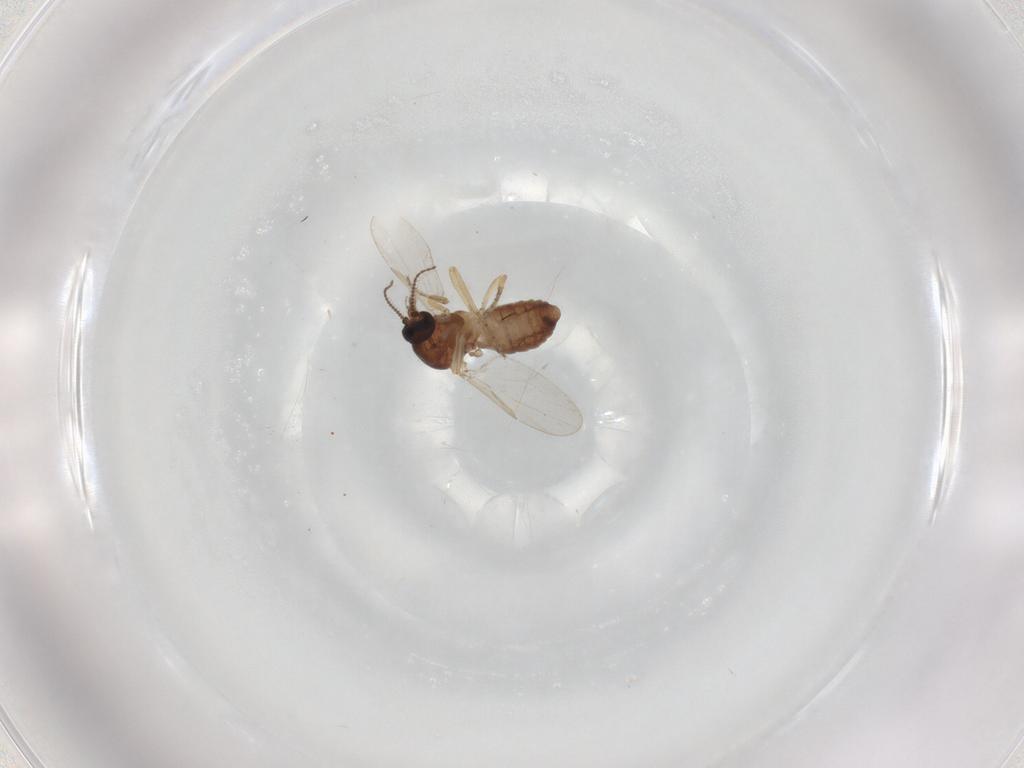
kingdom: Animalia
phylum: Arthropoda
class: Insecta
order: Diptera
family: Ceratopogonidae
